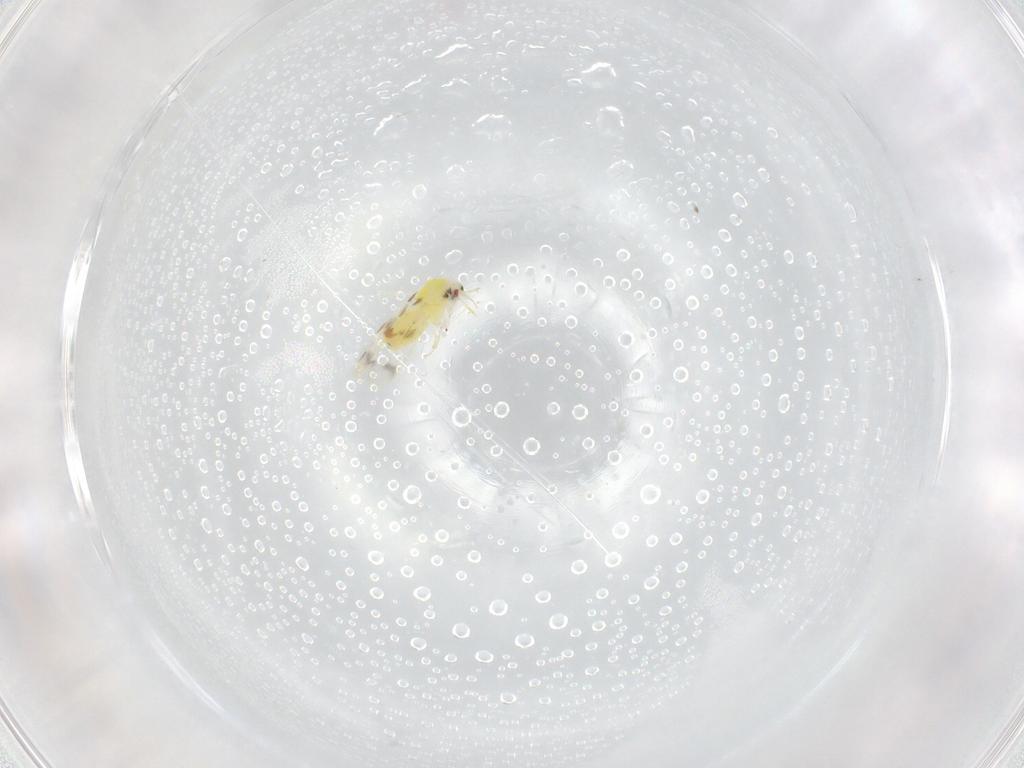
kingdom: Animalia
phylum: Arthropoda
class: Insecta
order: Hemiptera
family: Aleyrodidae
